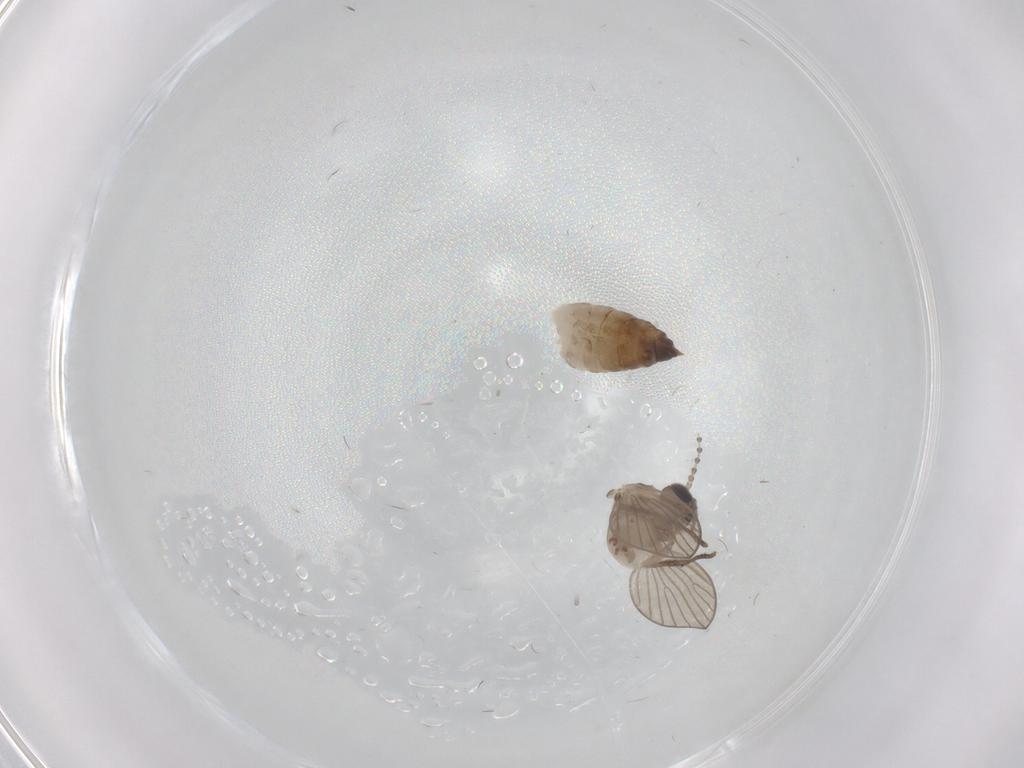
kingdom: Animalia
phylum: Arthropoda
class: Insecta
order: Diptera
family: Psychodidae
